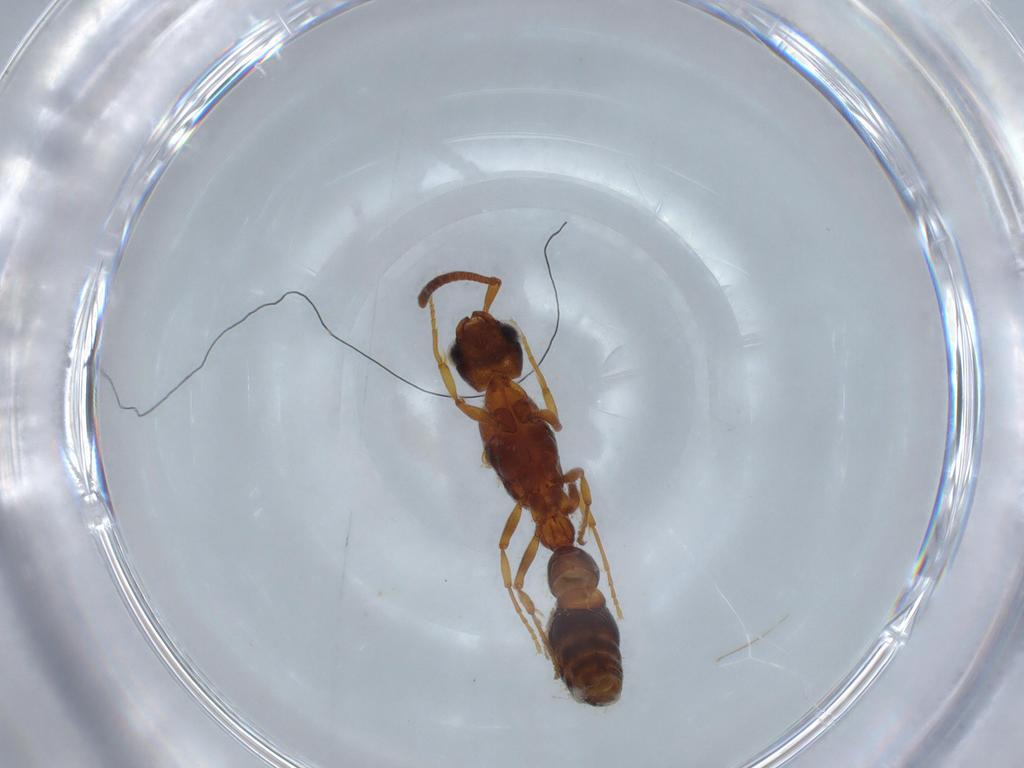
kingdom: Animalia
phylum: Arthropoda
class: Insecta
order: Hymenoptera
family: Formicidae
